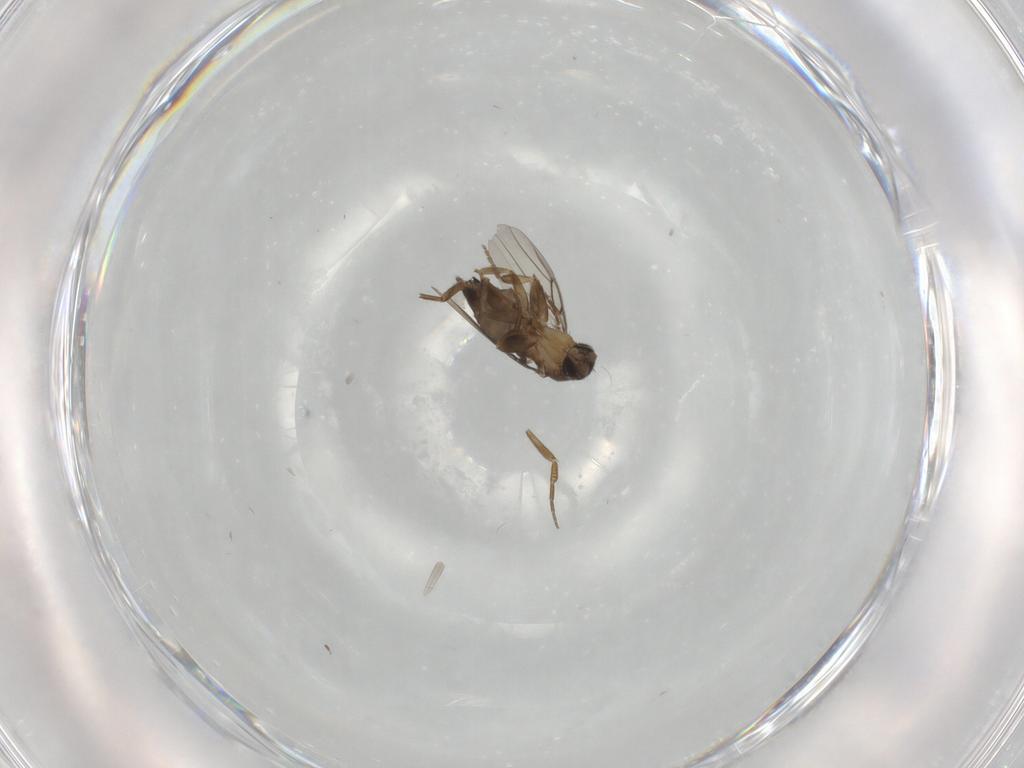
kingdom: Animalia
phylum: Arthropoda
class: Insecta
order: Diptera
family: Phoridae
